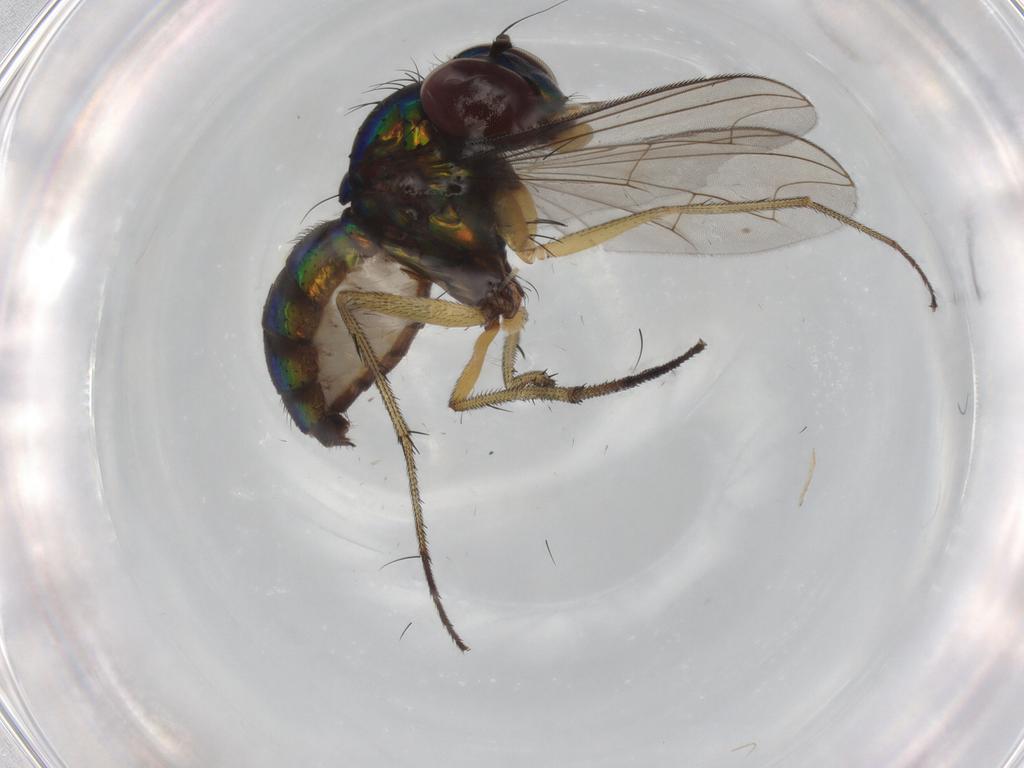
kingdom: Animalia
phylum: Arthropoda
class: Insecta
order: Diptera
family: Dolichopodidae
